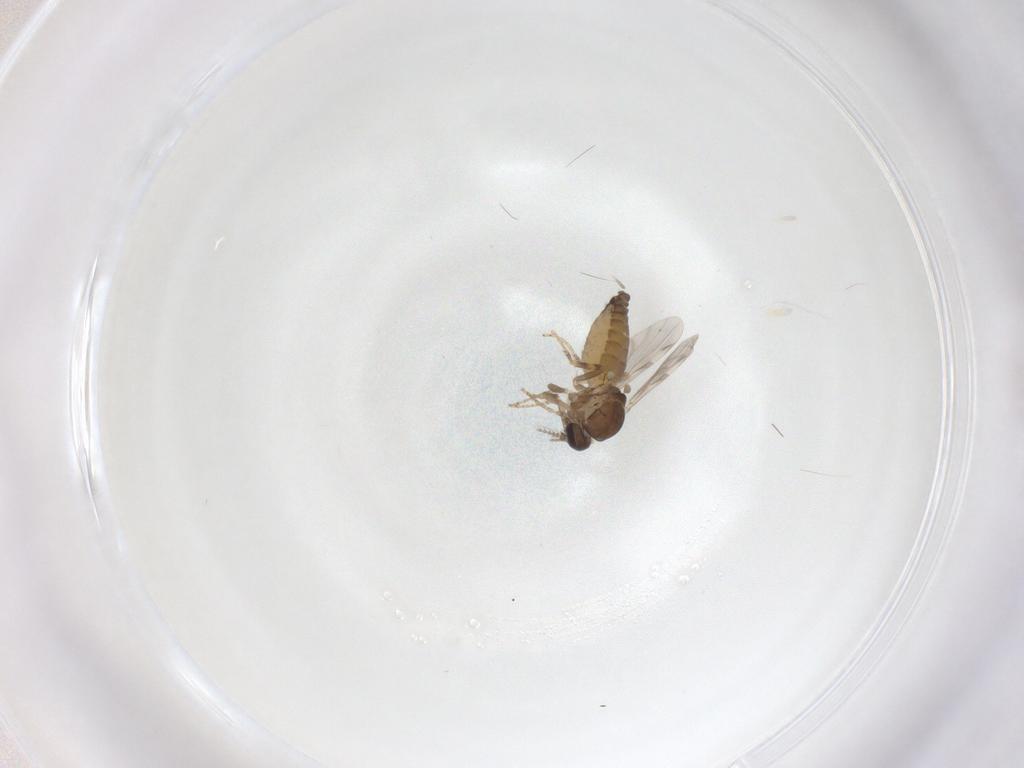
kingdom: Animalia
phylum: Arthropoda
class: Insecta
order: Diptera
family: Ceratopogonidae
